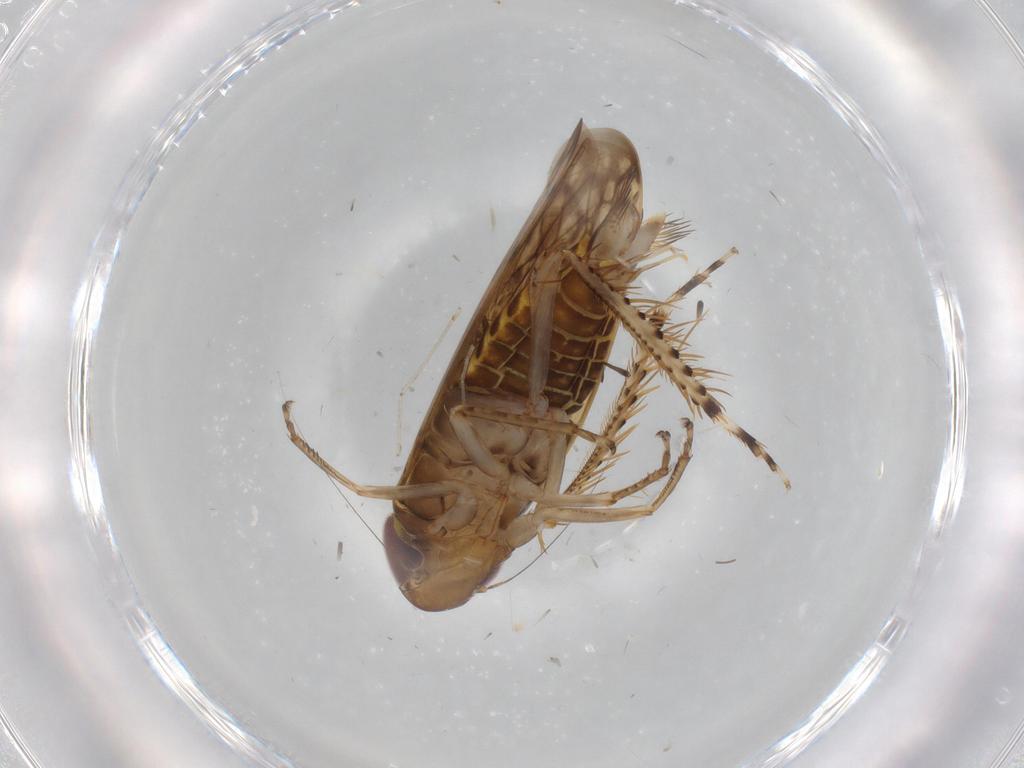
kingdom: Animalia
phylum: Arthropoda
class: Insecta
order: Hemiptera
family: Cicadellidae
